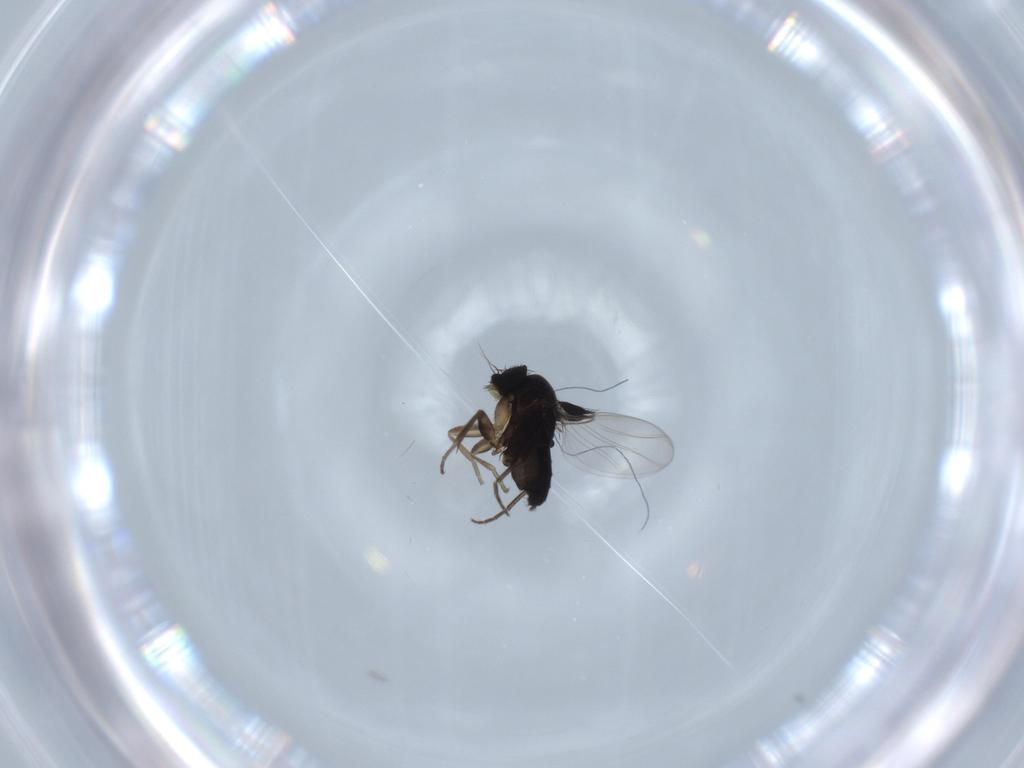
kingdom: Animalia
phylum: Arthropoda
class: Insecta
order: Diptera
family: Phoridae
